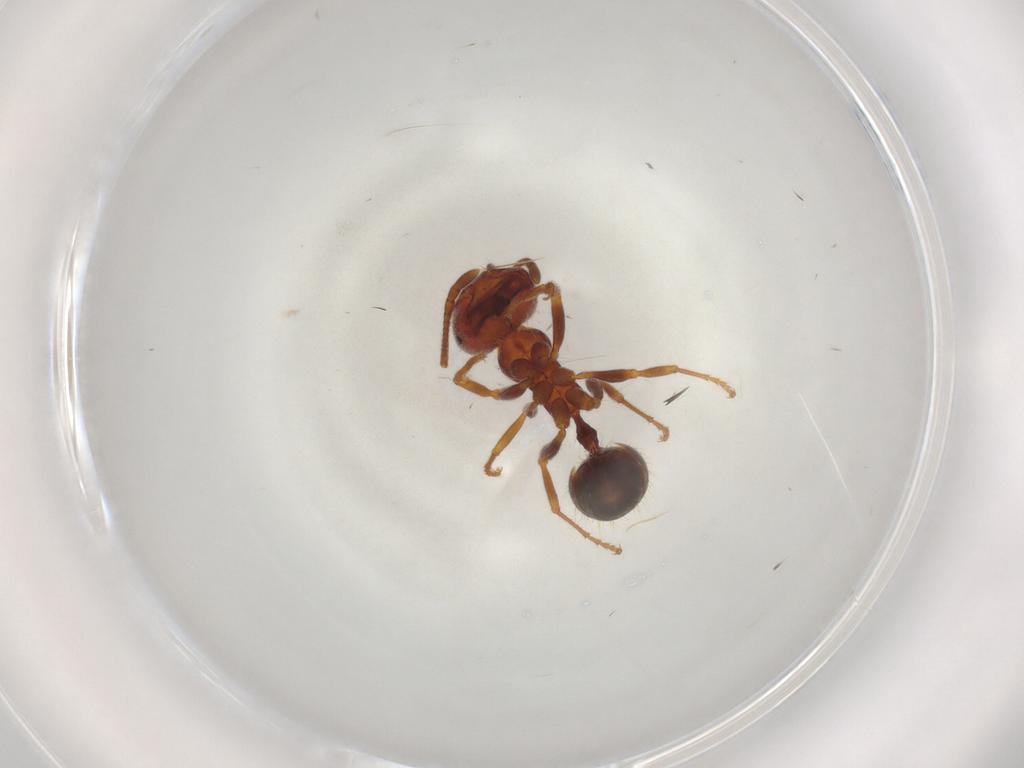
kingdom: Animalia
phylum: Arthropoda
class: Insecta
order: Hymenoptera
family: Formicidae
